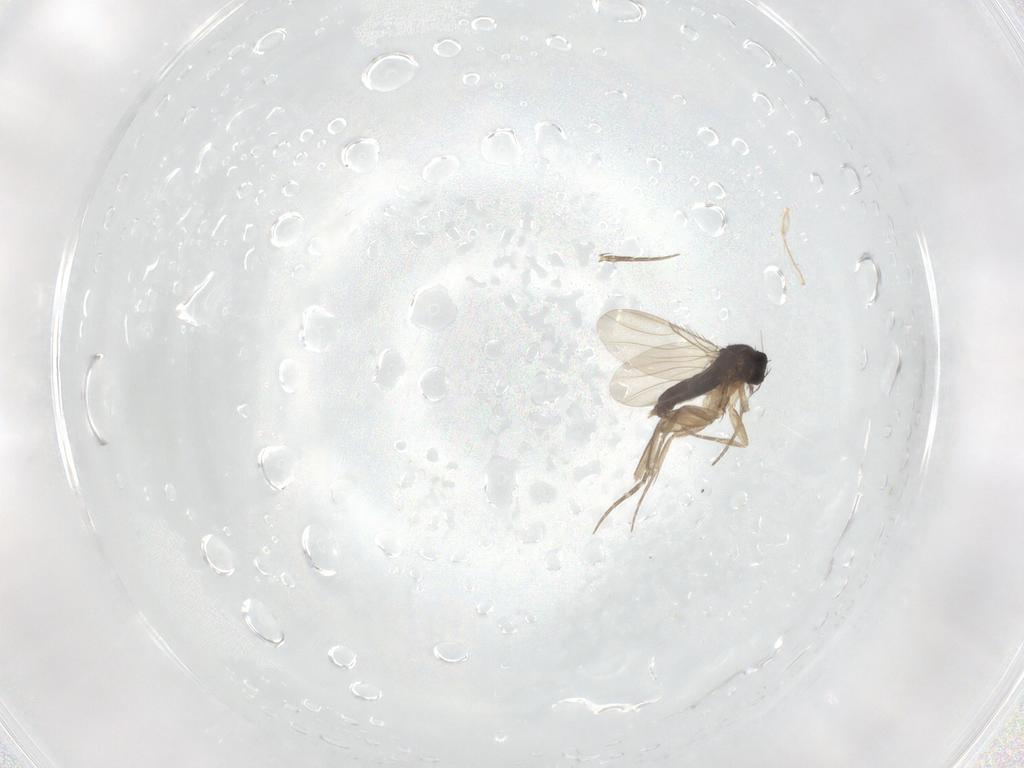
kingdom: Animalia
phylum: Arthropoda
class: Insecta
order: Diptera
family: Phoridae
